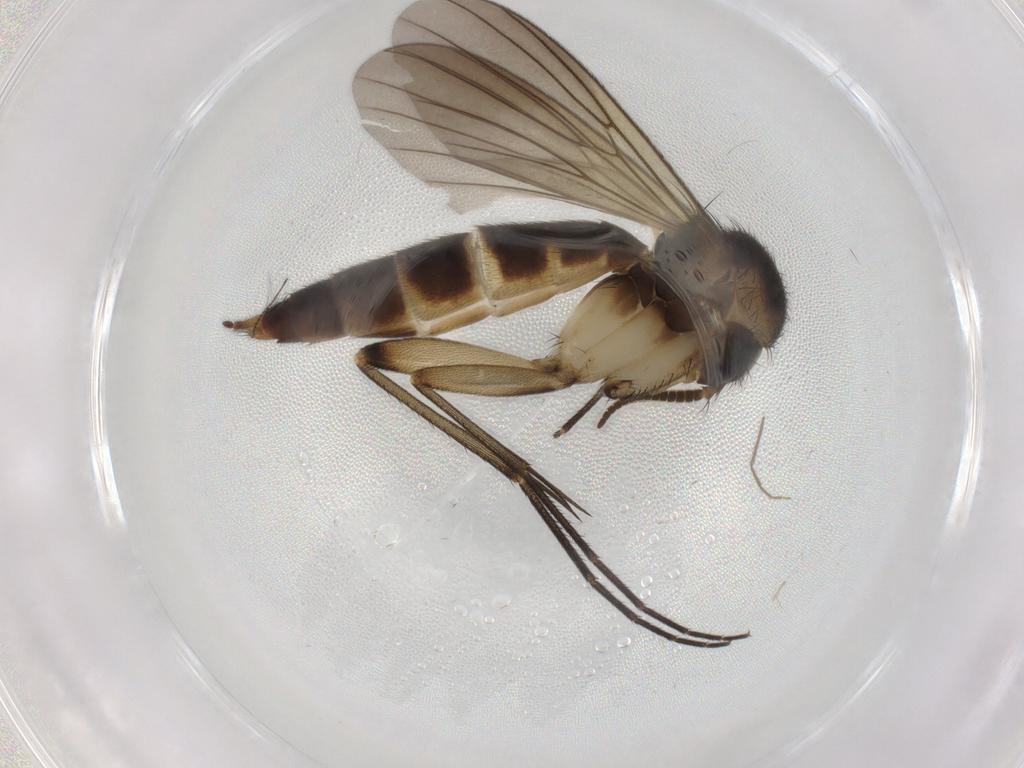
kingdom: Animalia
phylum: Arthropoda
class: Insecta
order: Diptera
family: Mycetophilidae
